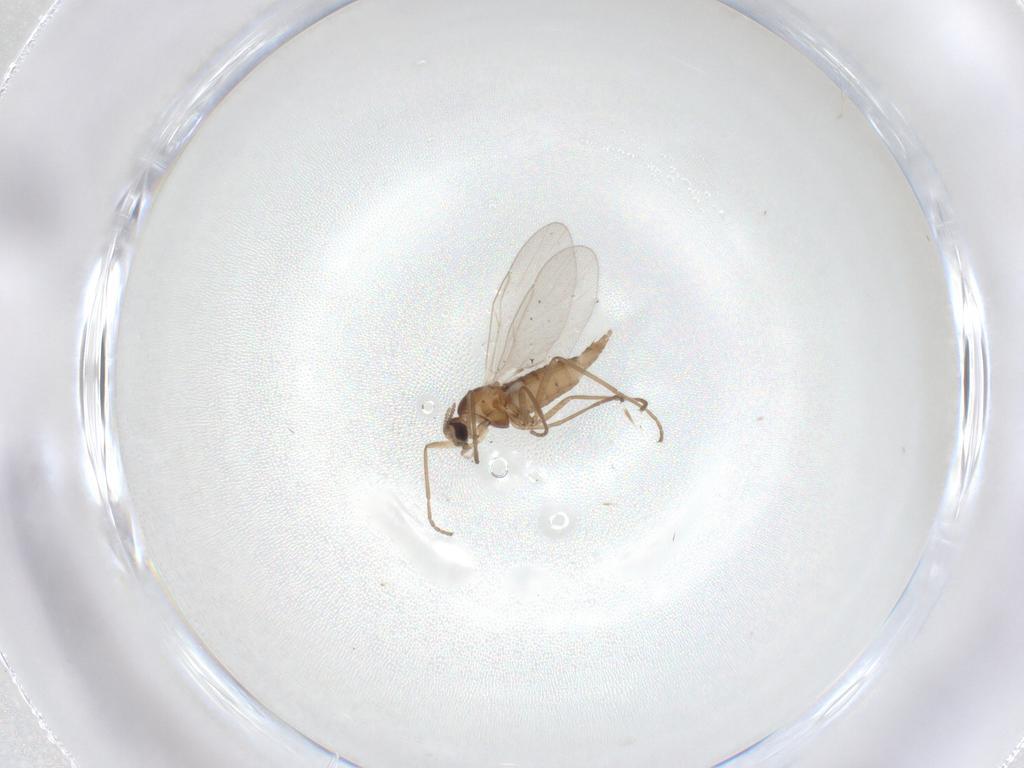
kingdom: Animalia
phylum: Arthropoda
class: Insecta
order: Diptera
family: Cecidomyiidae
